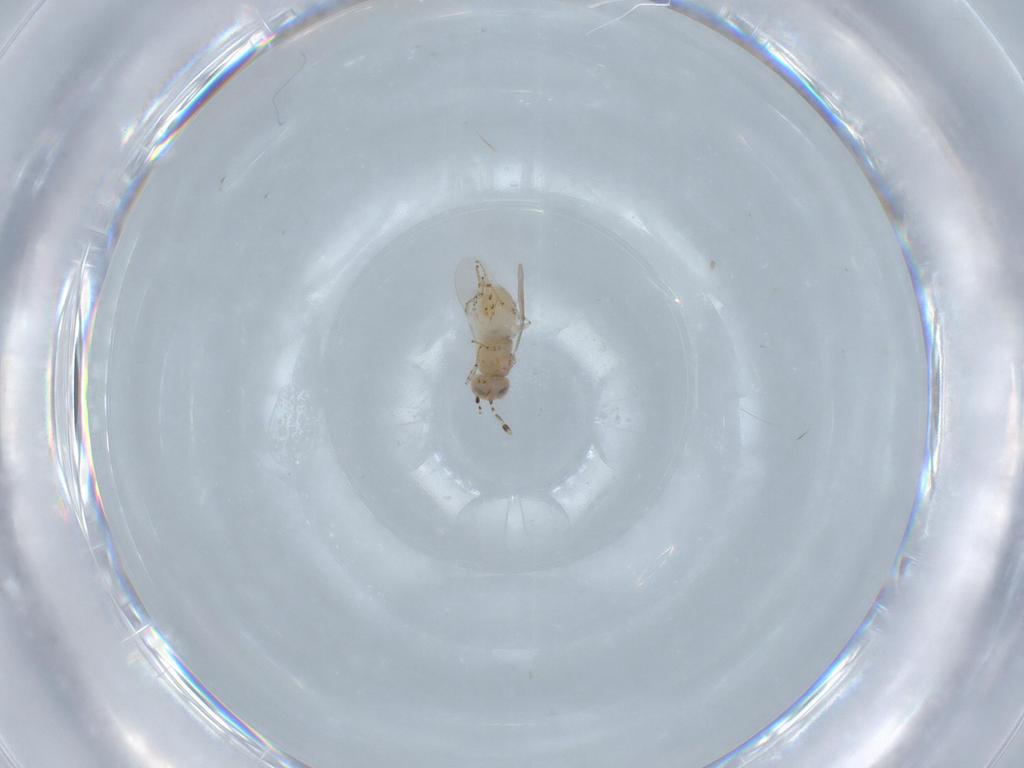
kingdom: Animalia
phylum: Arthropoda
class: Insecta
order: Hymenoptera
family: Encyrtidae
